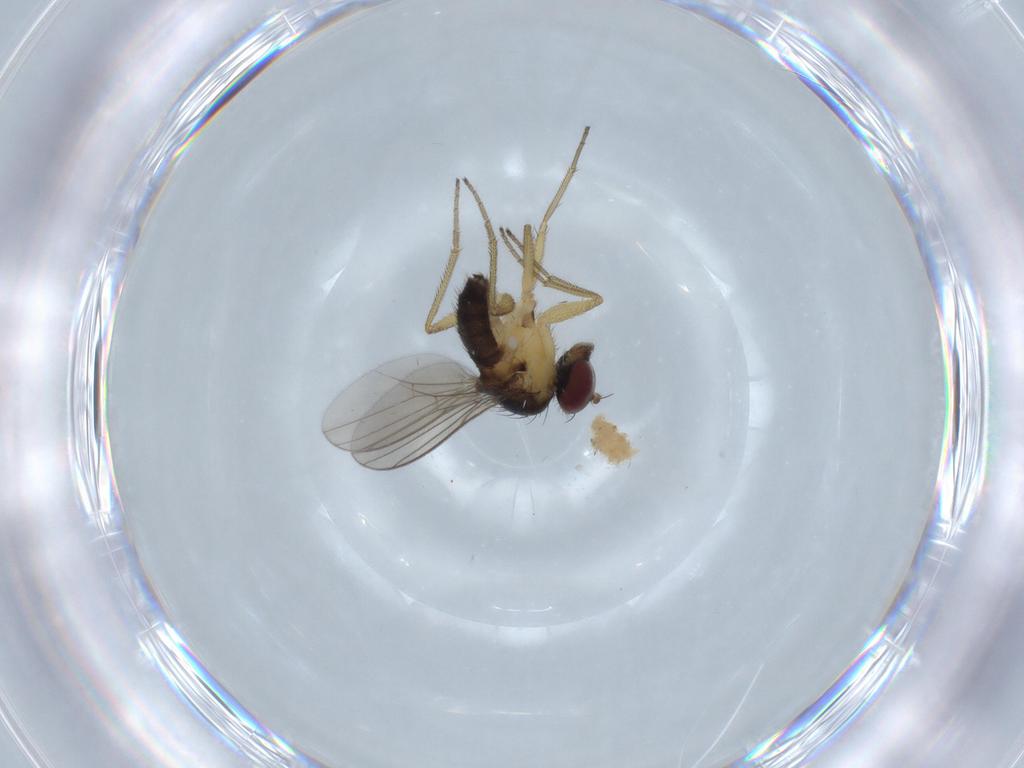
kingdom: Animalia
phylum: Arthropoda
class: Insecta
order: Diptera
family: Dolichopodidae
